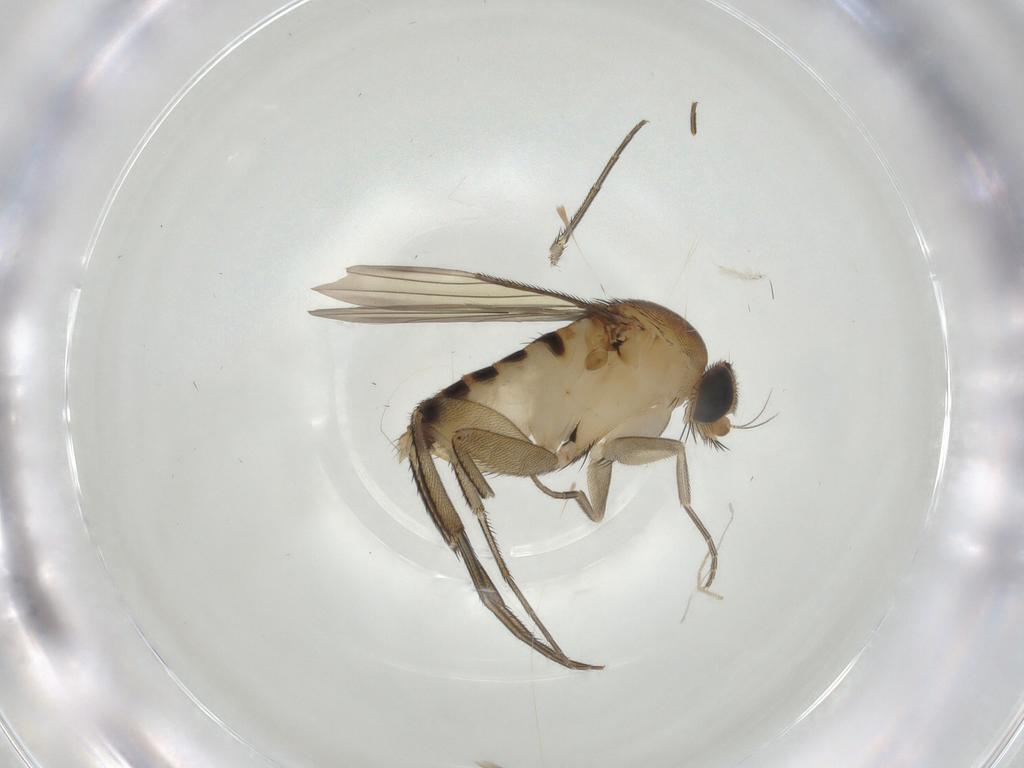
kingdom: Animalia
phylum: Arthropoda
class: Insecta
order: Diptera
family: Phoridae
